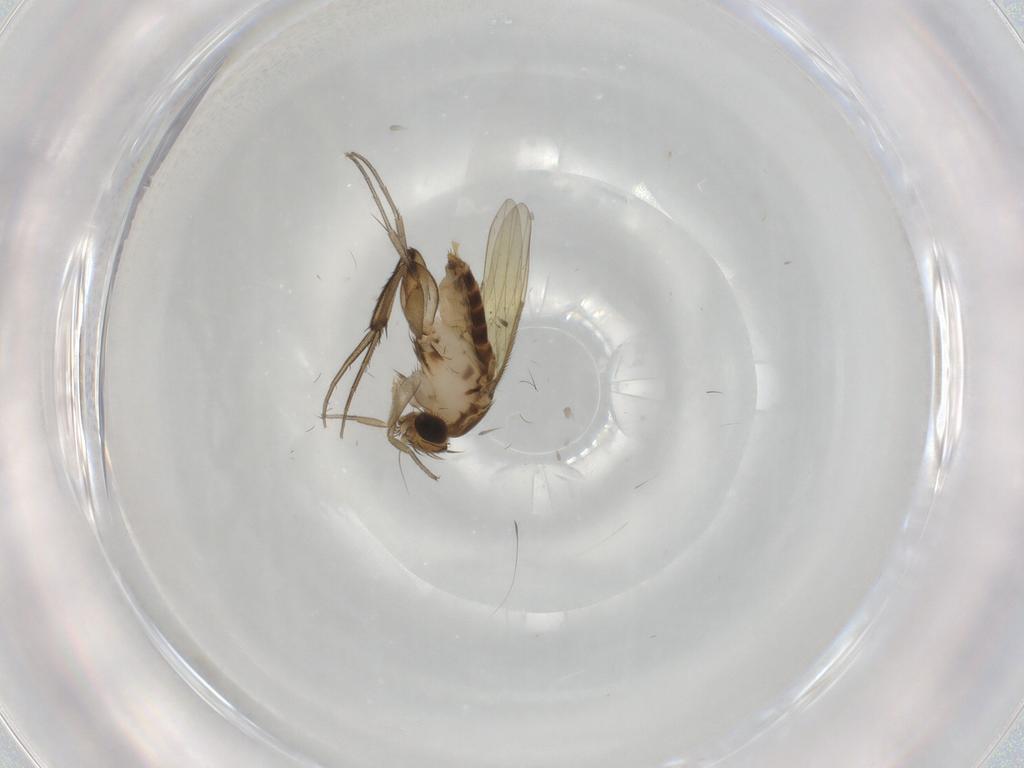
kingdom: Animalia
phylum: Arthropoda
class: Insecta
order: Diptera
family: Phoridae
